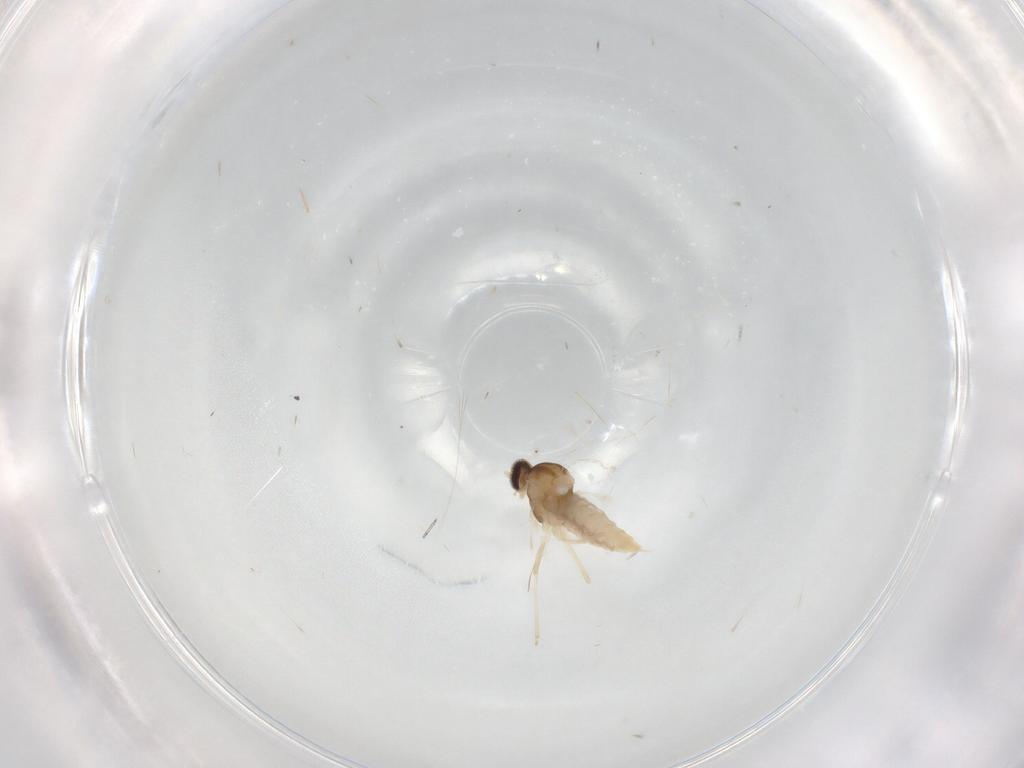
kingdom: Animalia
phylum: Arthropoda
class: Insecta
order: Diptera
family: Cecidomyiidae
